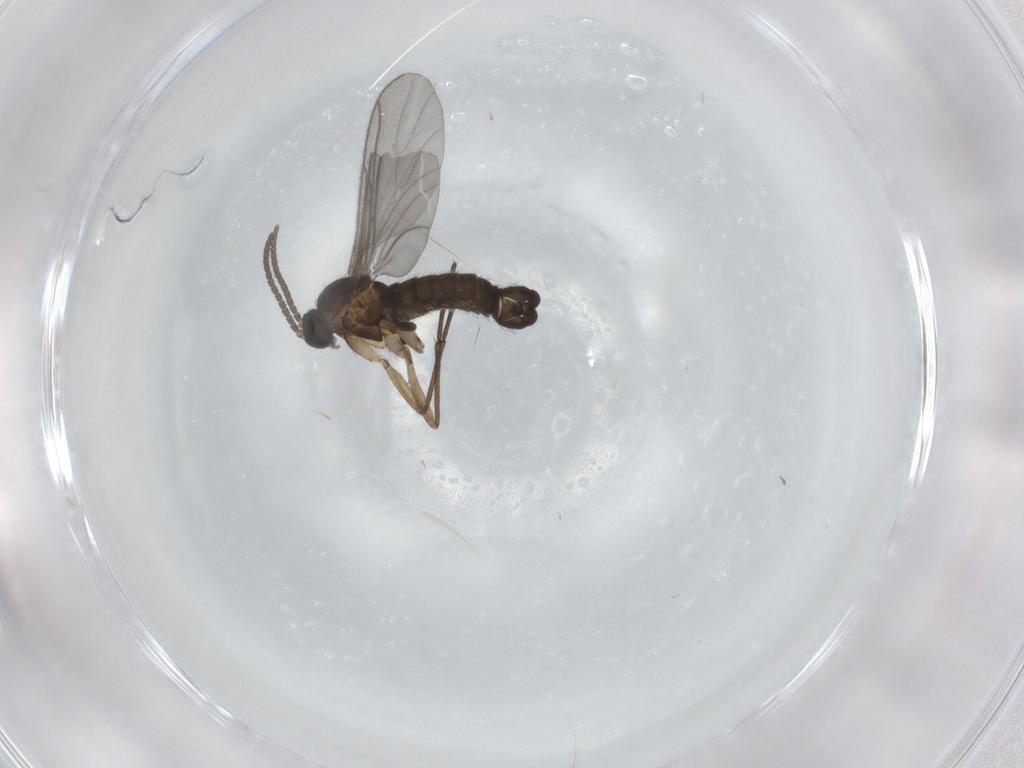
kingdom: Animalia
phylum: Arthropoda
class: Insecta
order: Diptera
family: Sciaridae
